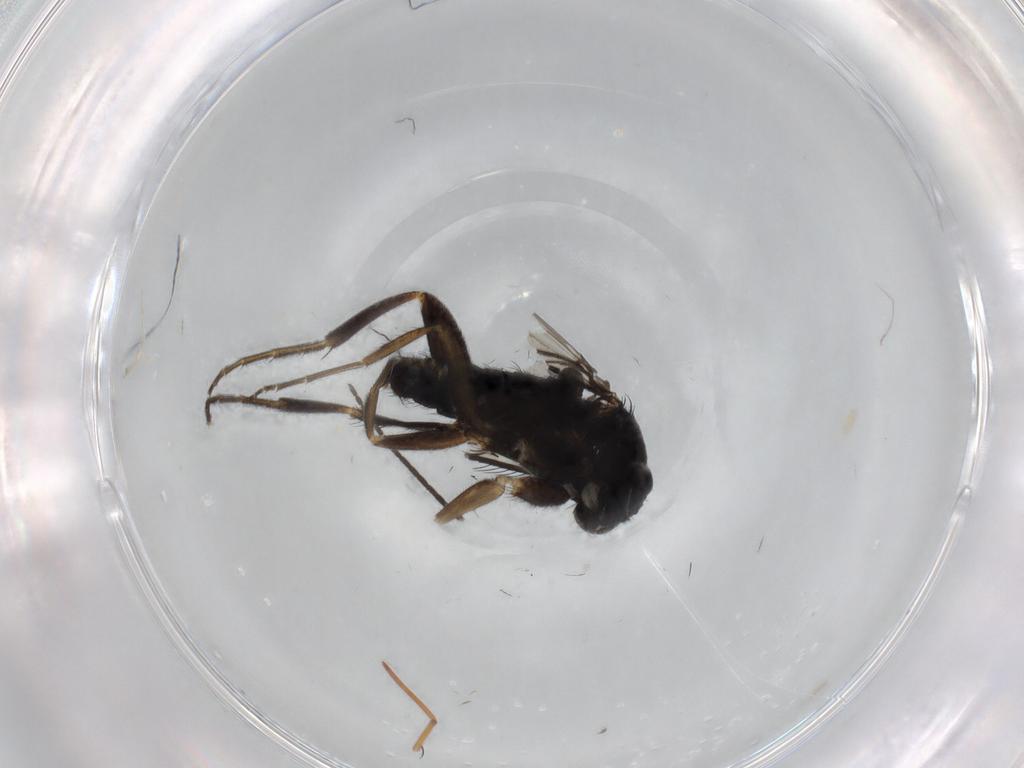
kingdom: Animalia
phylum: Arthropoda
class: Insecta
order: Diptera
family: Phoridae
